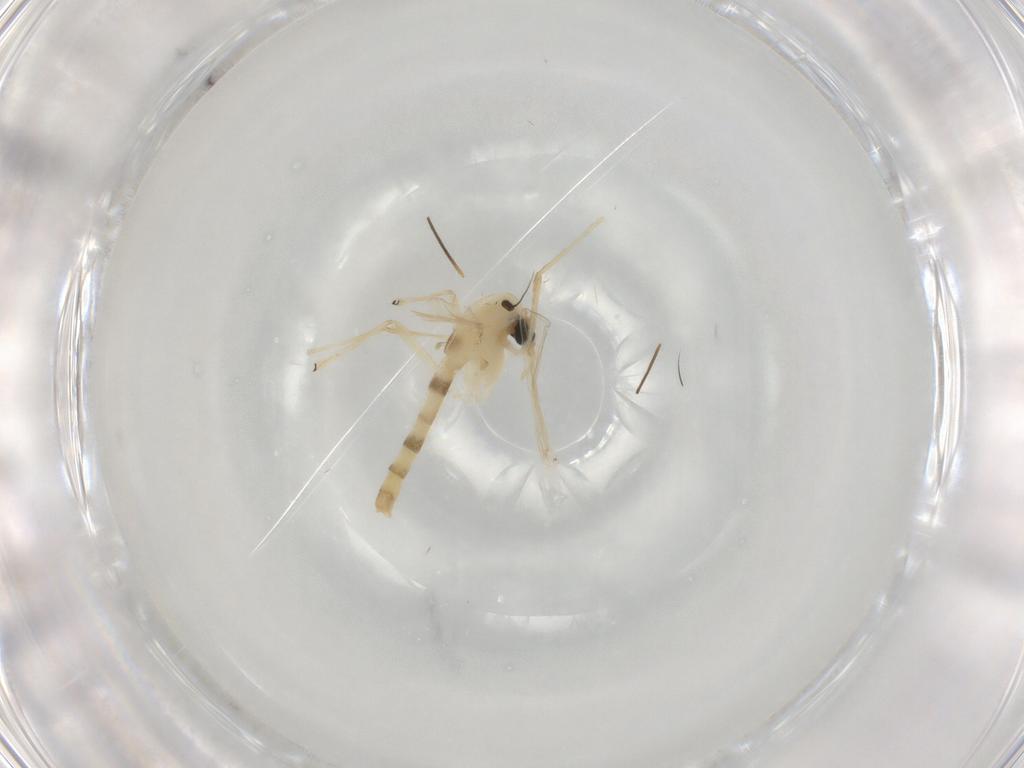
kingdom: Animalia
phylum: Arthropoda
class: Insecta
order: Diptera
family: Chironomidae
